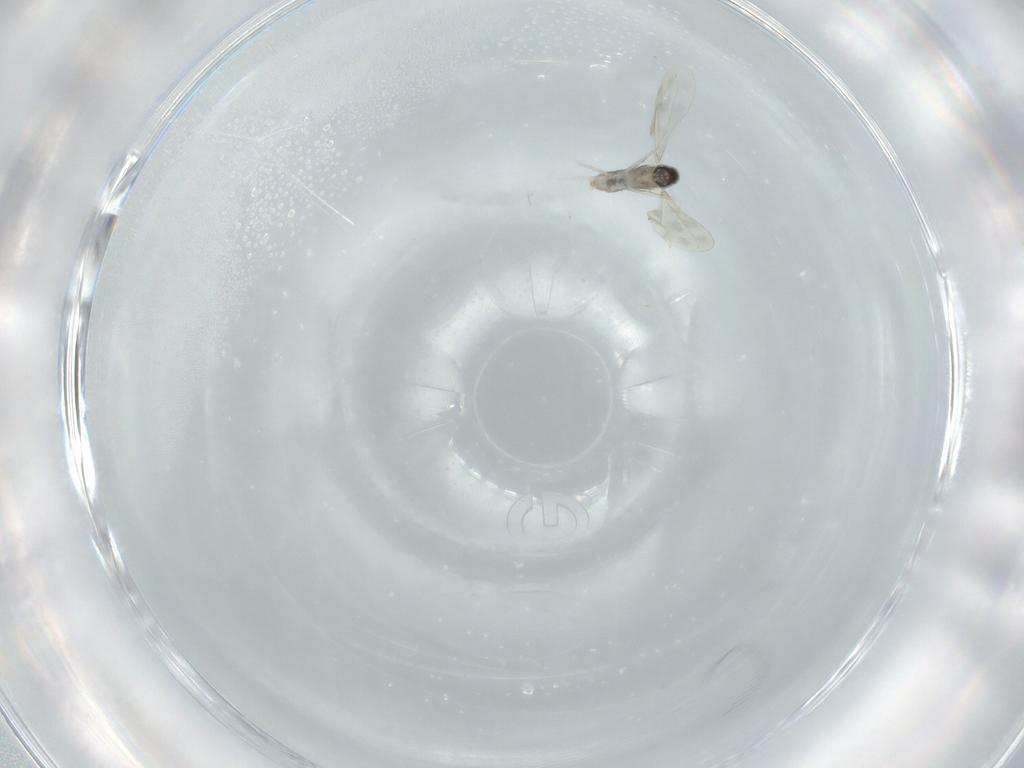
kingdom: Animalia
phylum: Arthropoda
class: Insecta
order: Diptera
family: Cecidomyiidae
